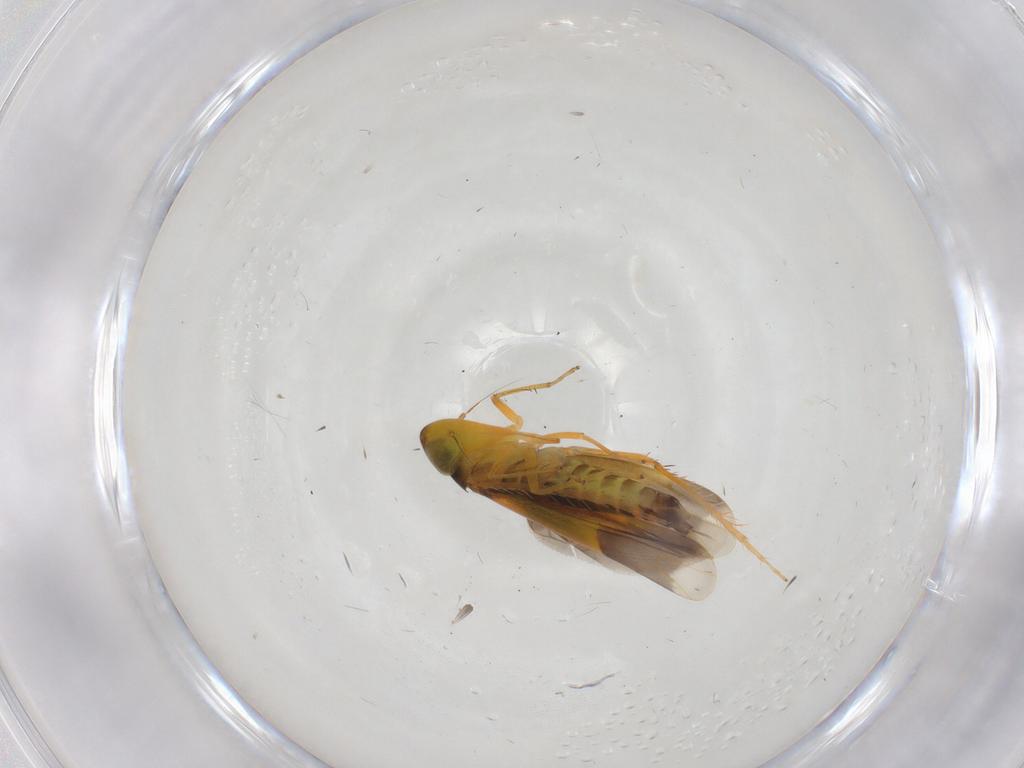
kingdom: Animalia
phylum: Arthropoda
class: Insecta
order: Hemiptera
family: Cicadellidae
